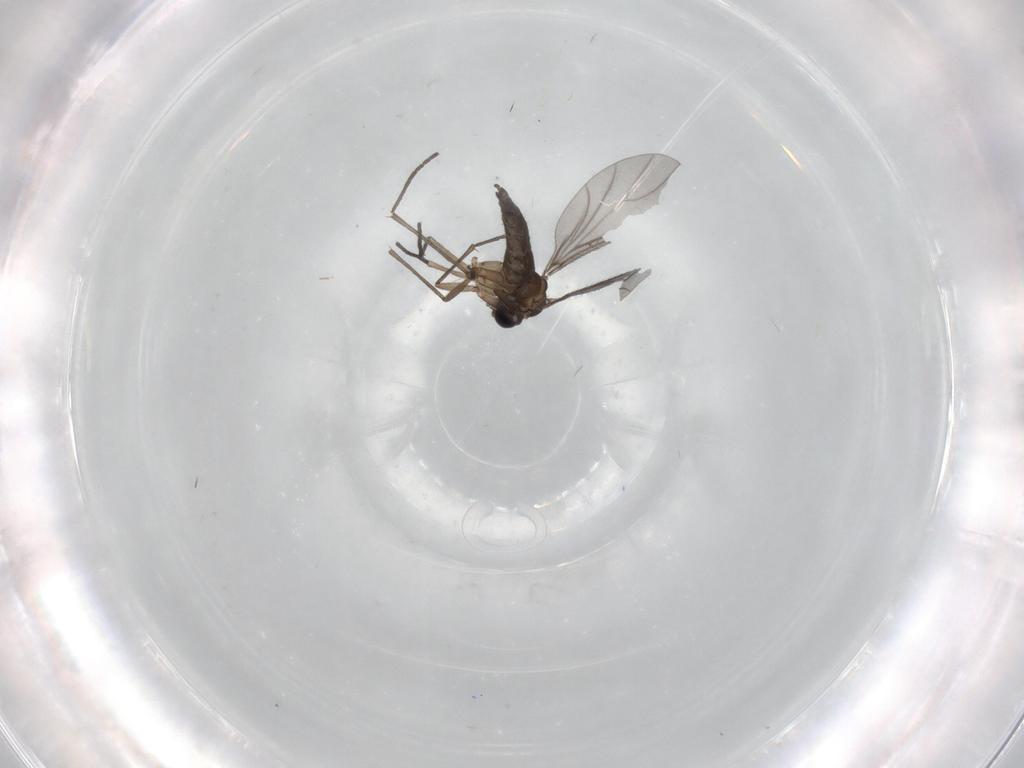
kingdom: Animalia
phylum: Arthropoda
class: Insecta
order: Diptera
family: Sciaridae
